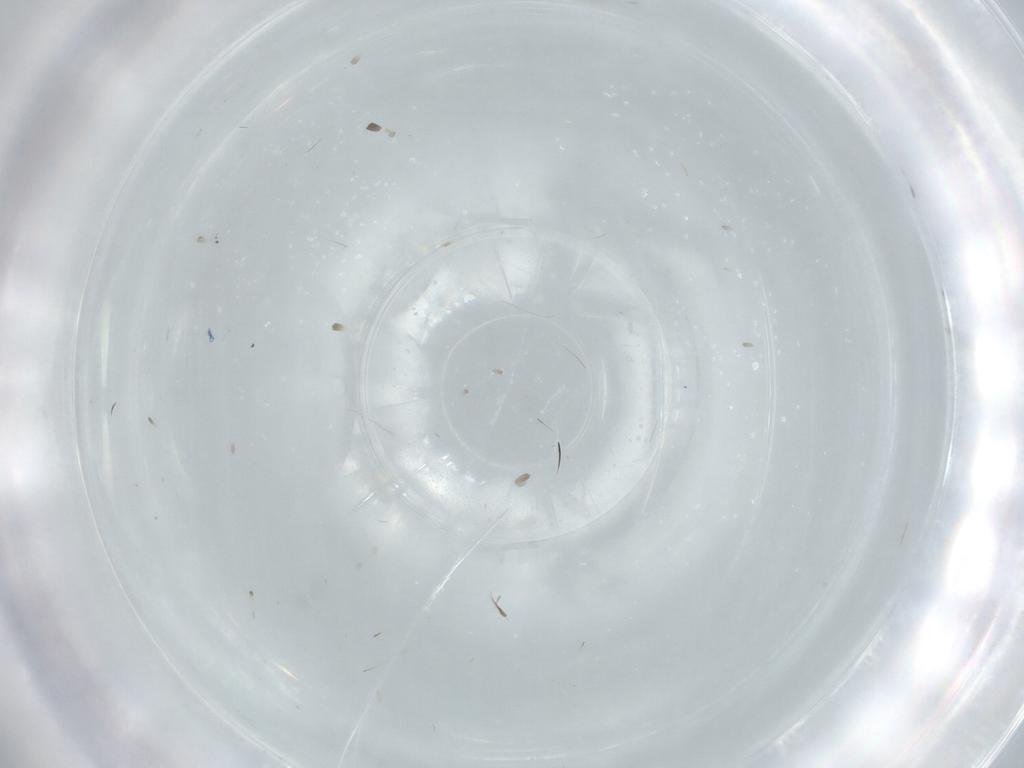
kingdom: Animalia
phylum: Arthropoda
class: Insecta
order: Diptera
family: Cecidomyiidae
